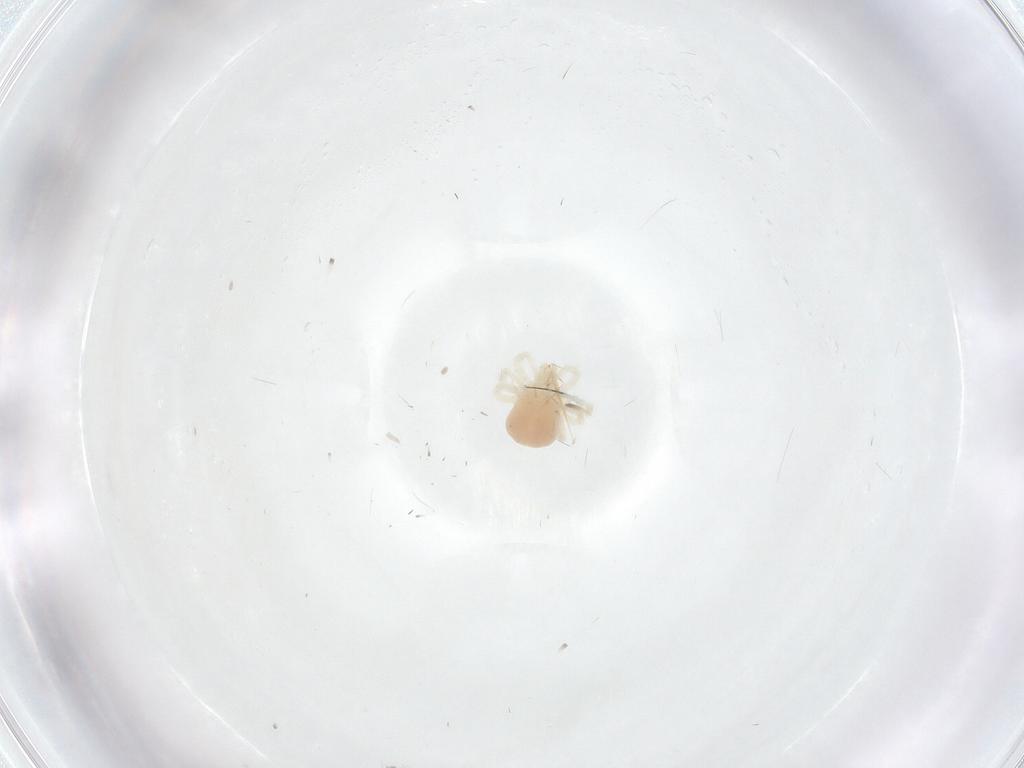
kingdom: Animalia
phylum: Arthropoda
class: Arachnida
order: Trombidiformes
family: Anystidae
